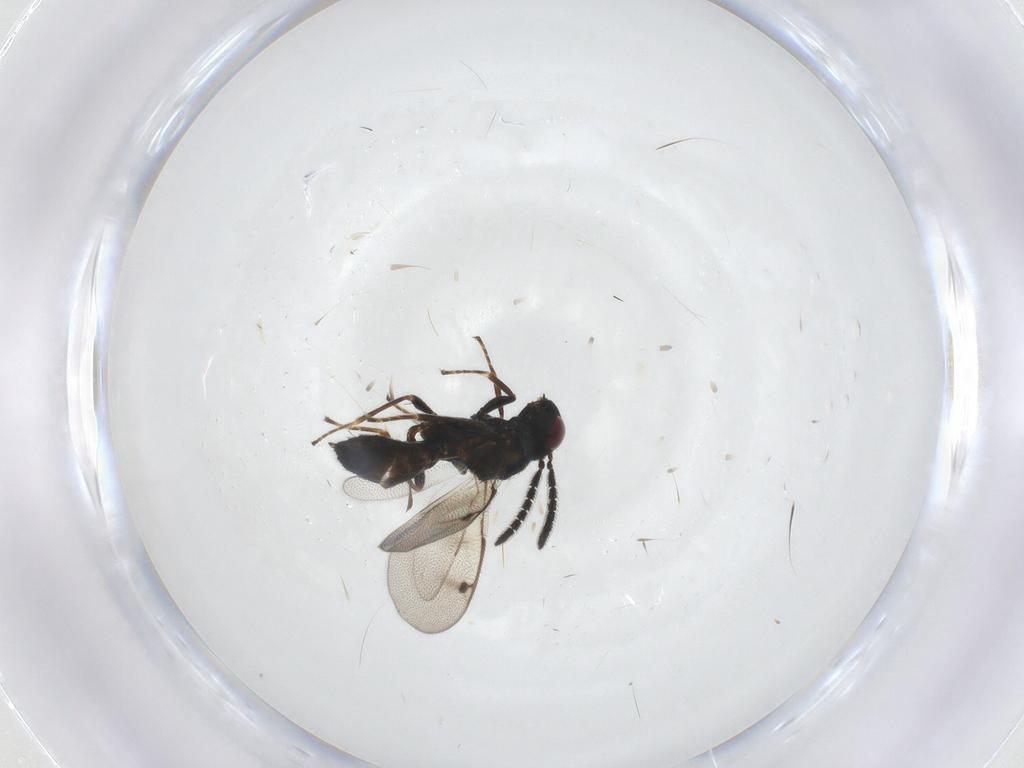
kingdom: Animalia
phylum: Arthropoda
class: Insecta
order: Hymenoptera
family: Pteromalidae
